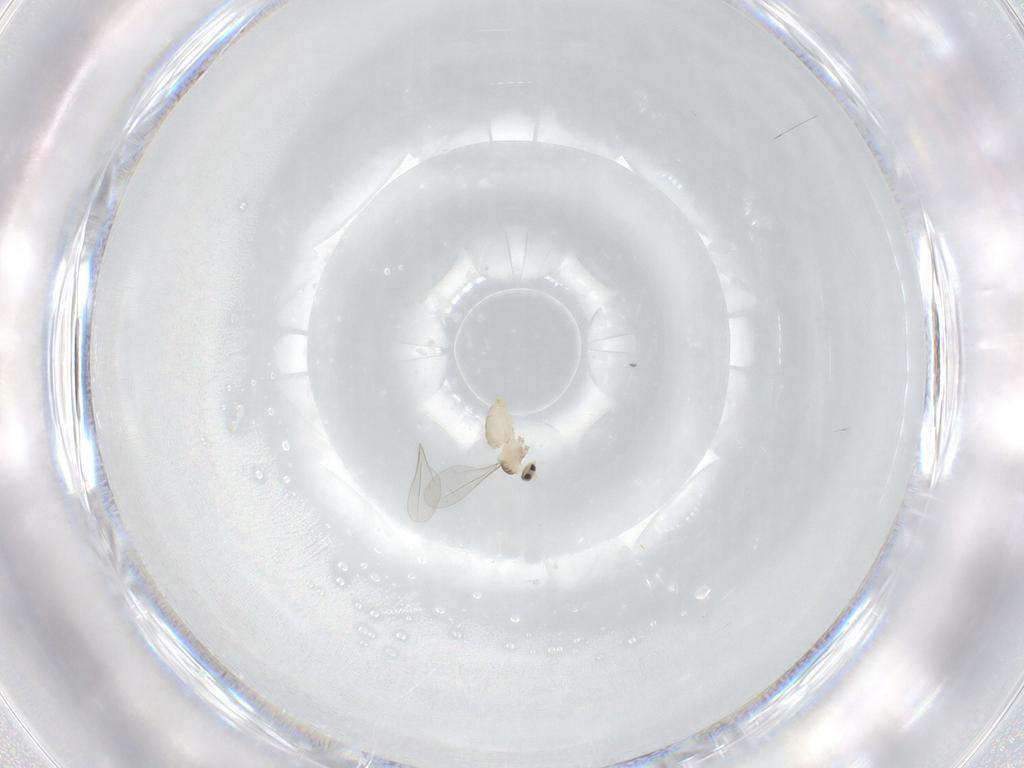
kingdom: Animalia
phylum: Arthropoda
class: Insecta
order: Diptera
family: Cecidomyiidae
